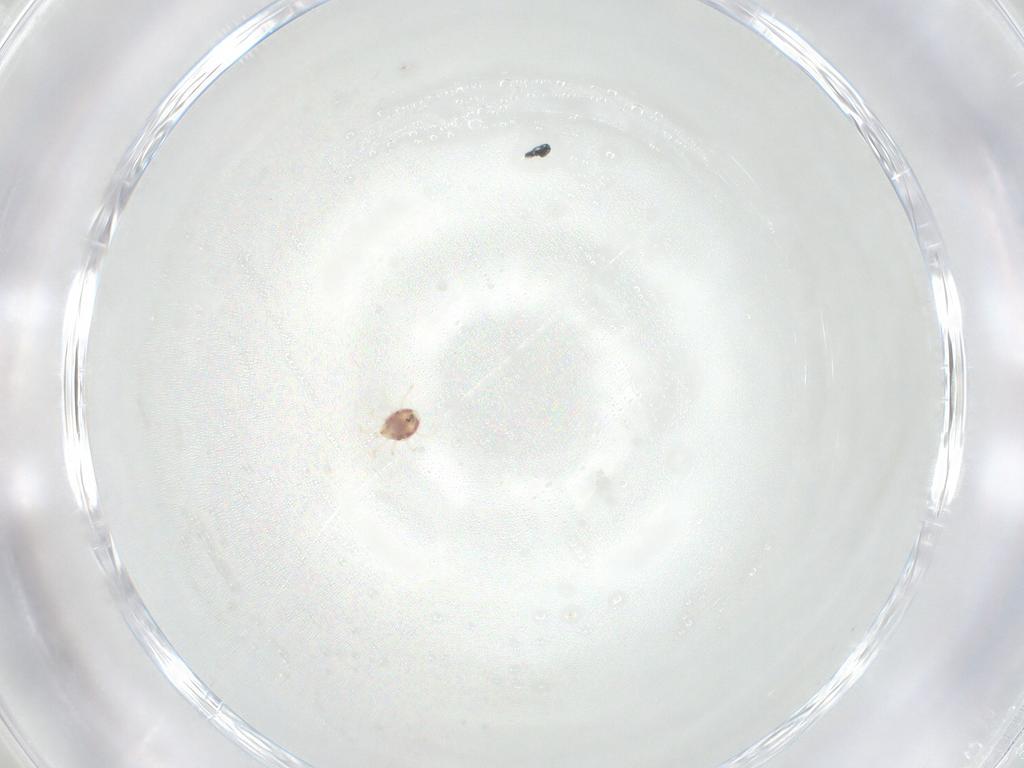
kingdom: Animalia
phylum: Arthropoda
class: Arachnida
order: Mesostigmata
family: Phytoseiidae
